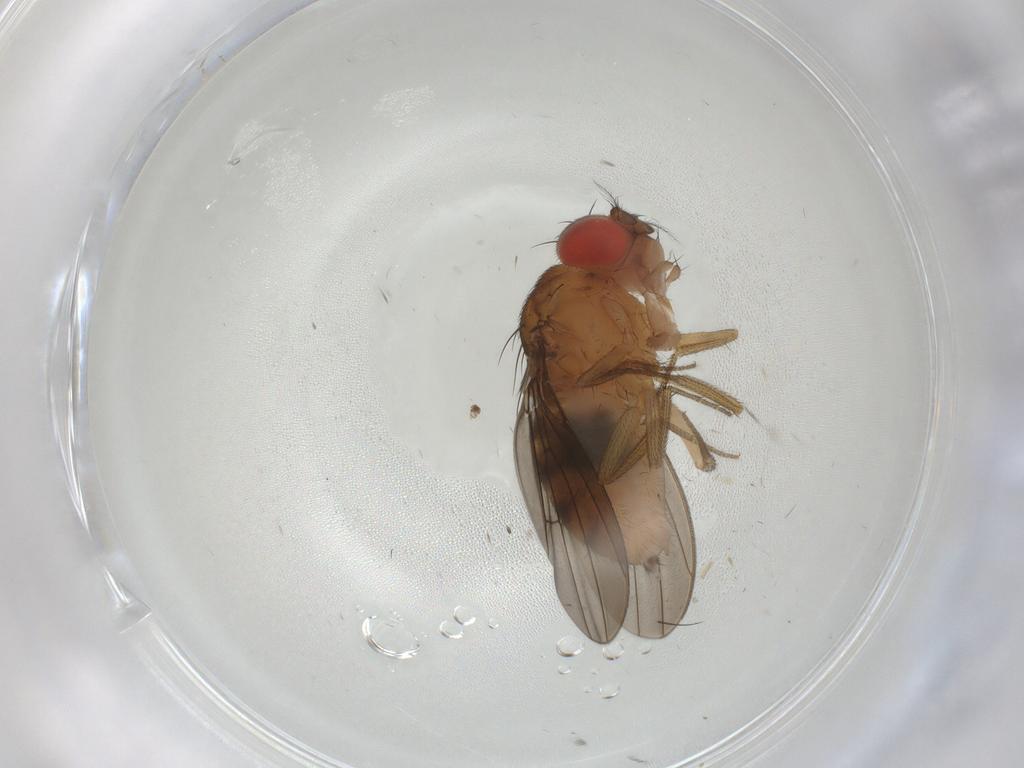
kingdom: Animalia
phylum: Arthropoda
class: Insecta
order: Diptera
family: Drosophilidae
